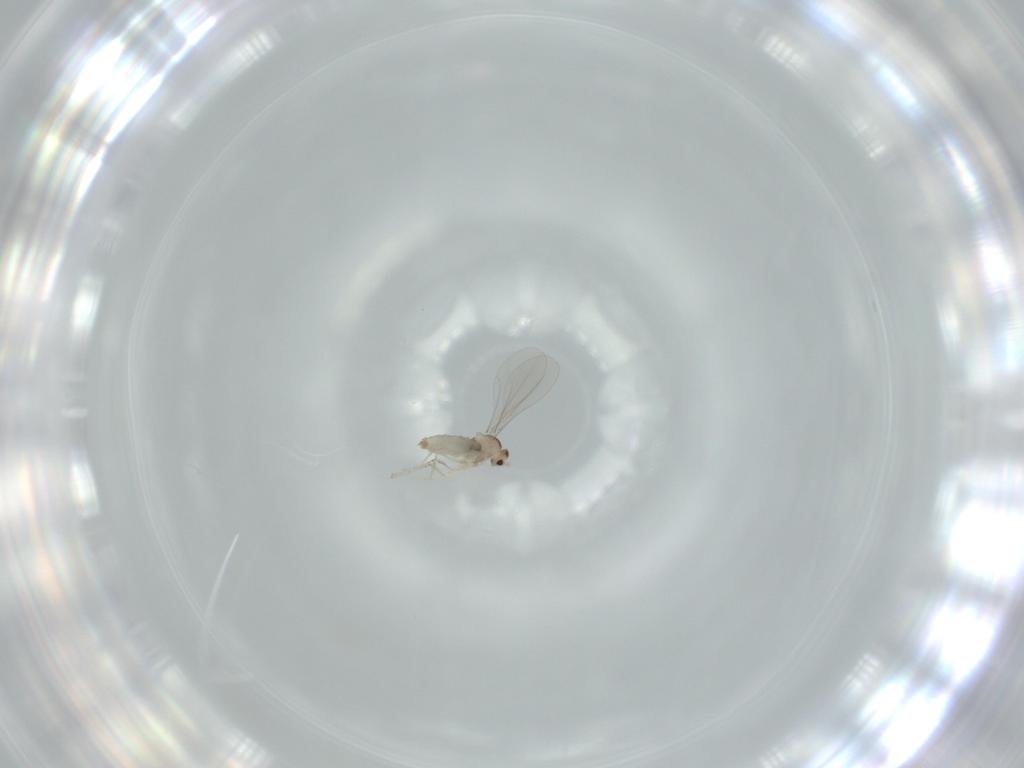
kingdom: Animalia
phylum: Arthropoda
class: Insecta
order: Diptera
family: Cecidomyiidae
